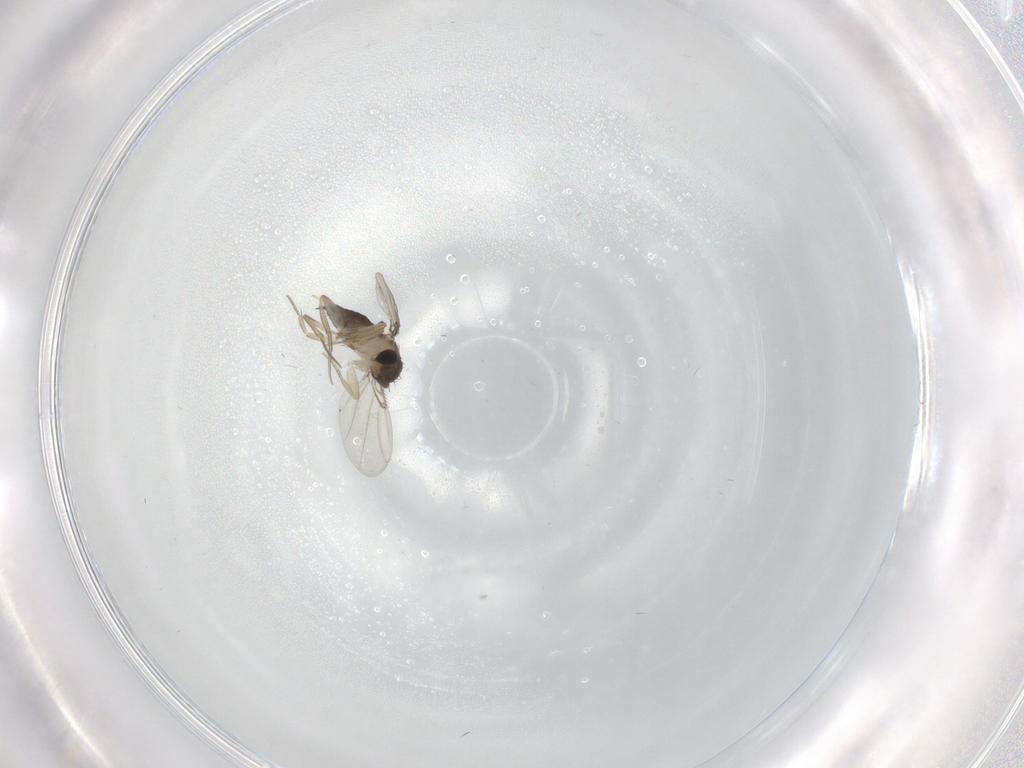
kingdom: Animalia
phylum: Arthropoda
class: Insecta
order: Diptera
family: Phoridae
